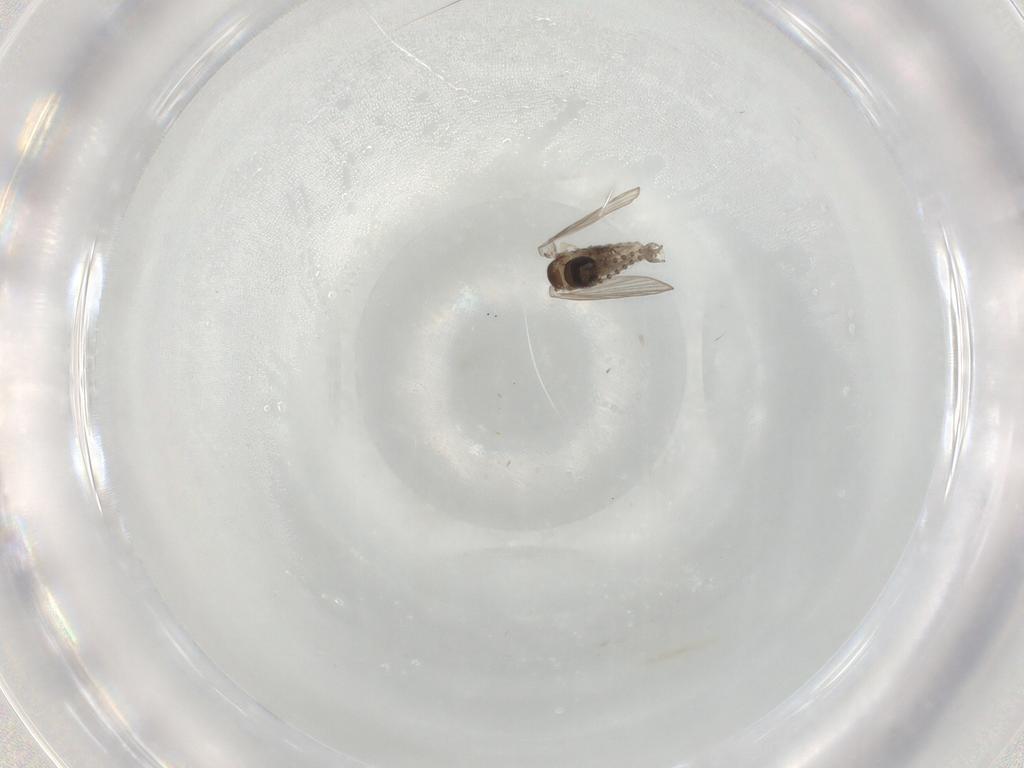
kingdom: Animalia
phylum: Arthropoda
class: Insecta
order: Diptera
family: Psychodidae
